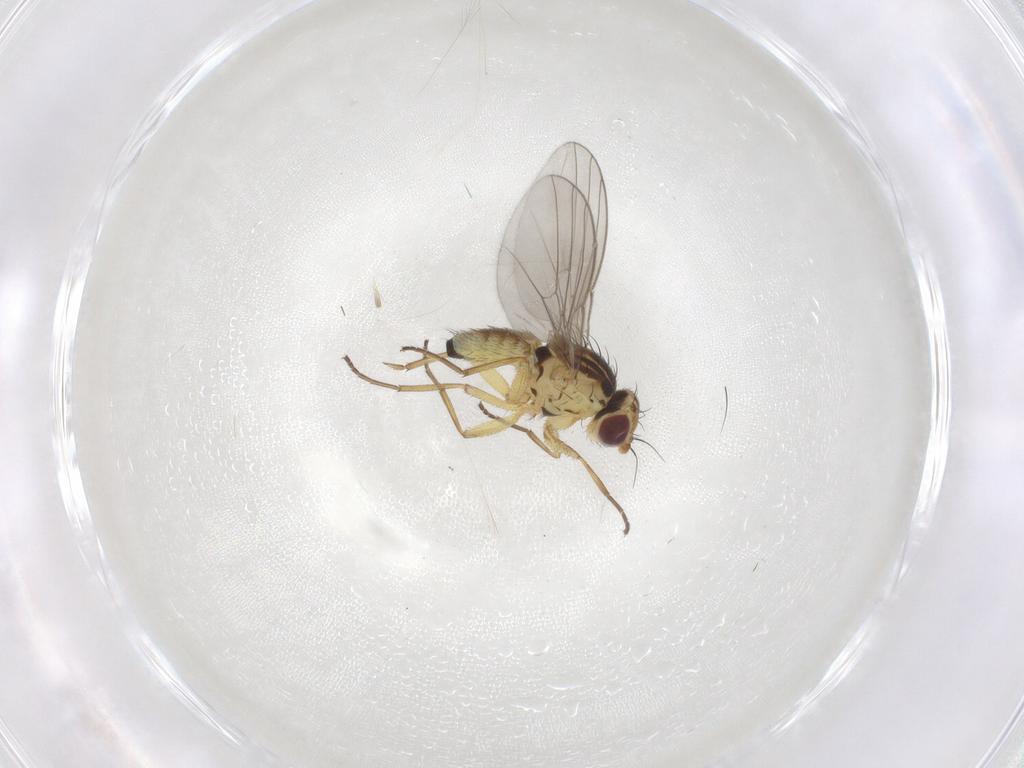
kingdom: Animalia
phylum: Arthropoda
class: Insecta
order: Diptera
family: Agromyzidae
